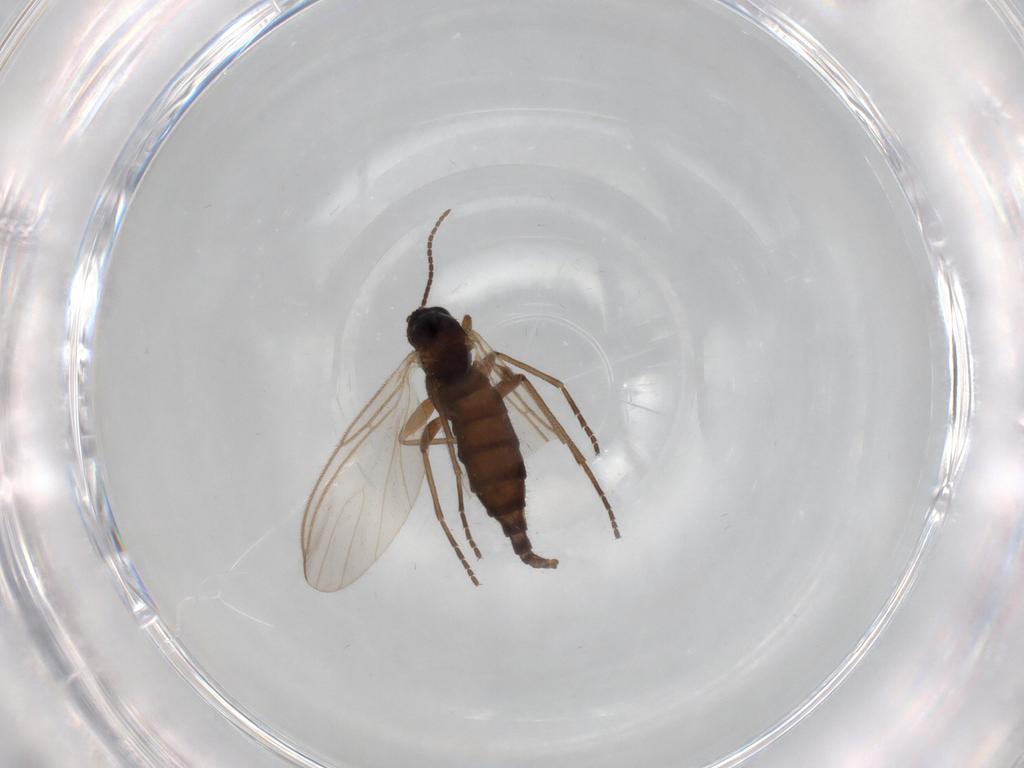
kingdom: Animalia
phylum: Arthropoda
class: Insecta
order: Diptera
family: Sciaridae
